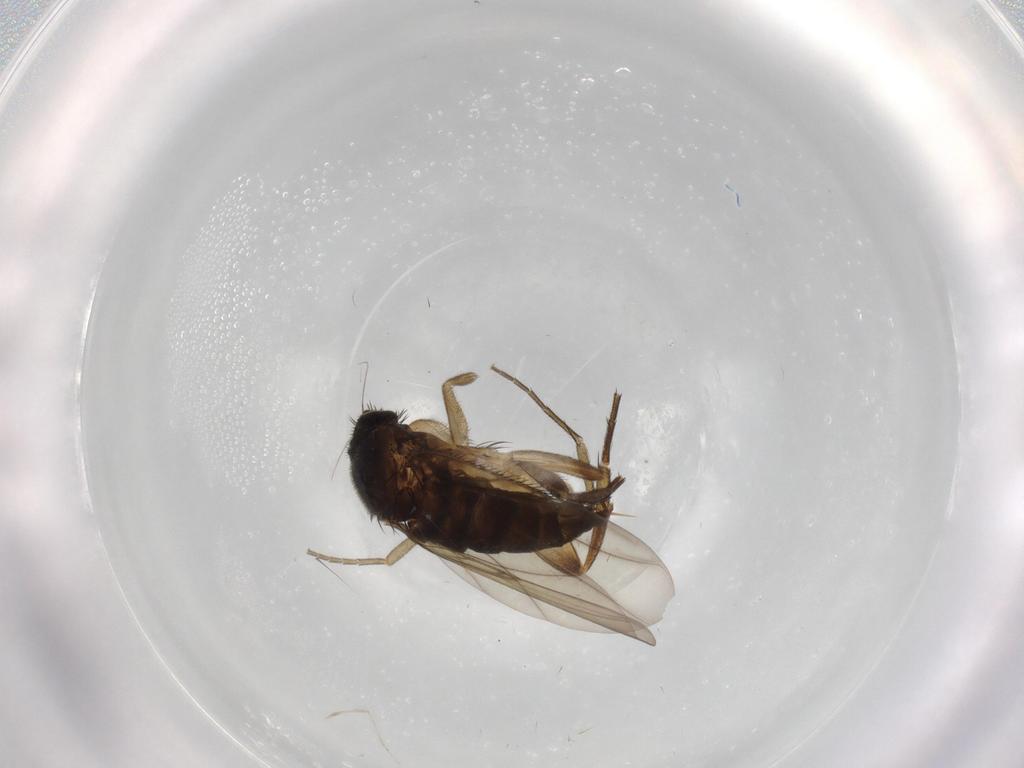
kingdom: Animalia
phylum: Arthropoda
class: Insecta
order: Diptera
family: Phoridae
